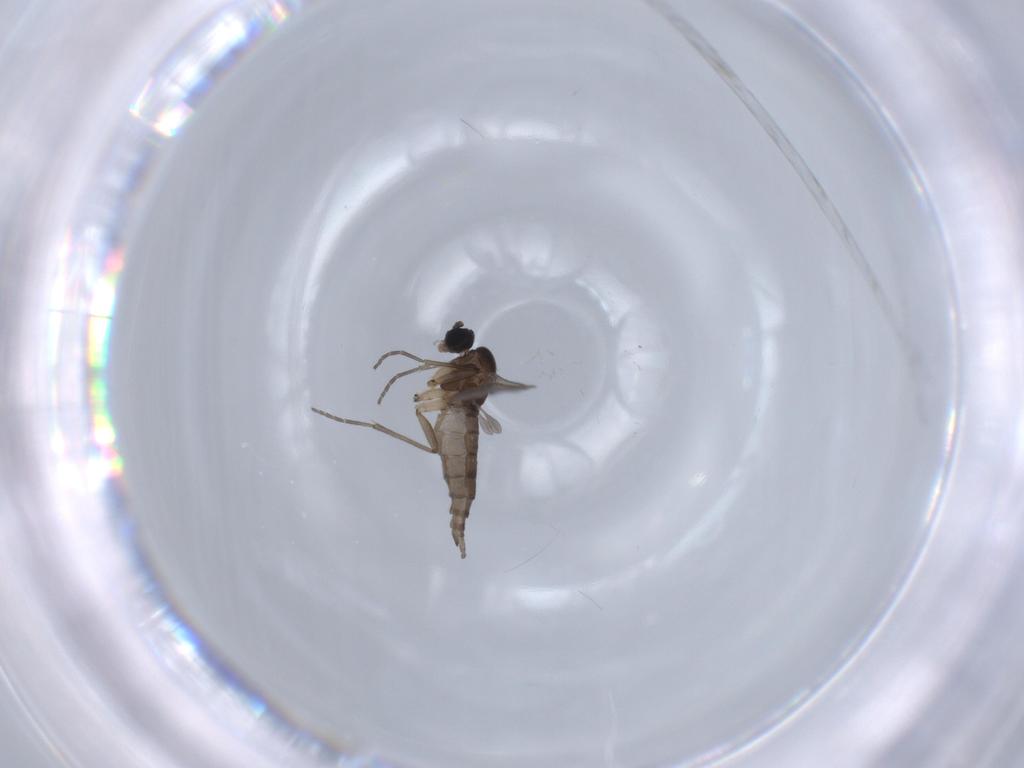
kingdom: Animalia
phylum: Arthropoda
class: Insecta
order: Diptera
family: Sciaridae
